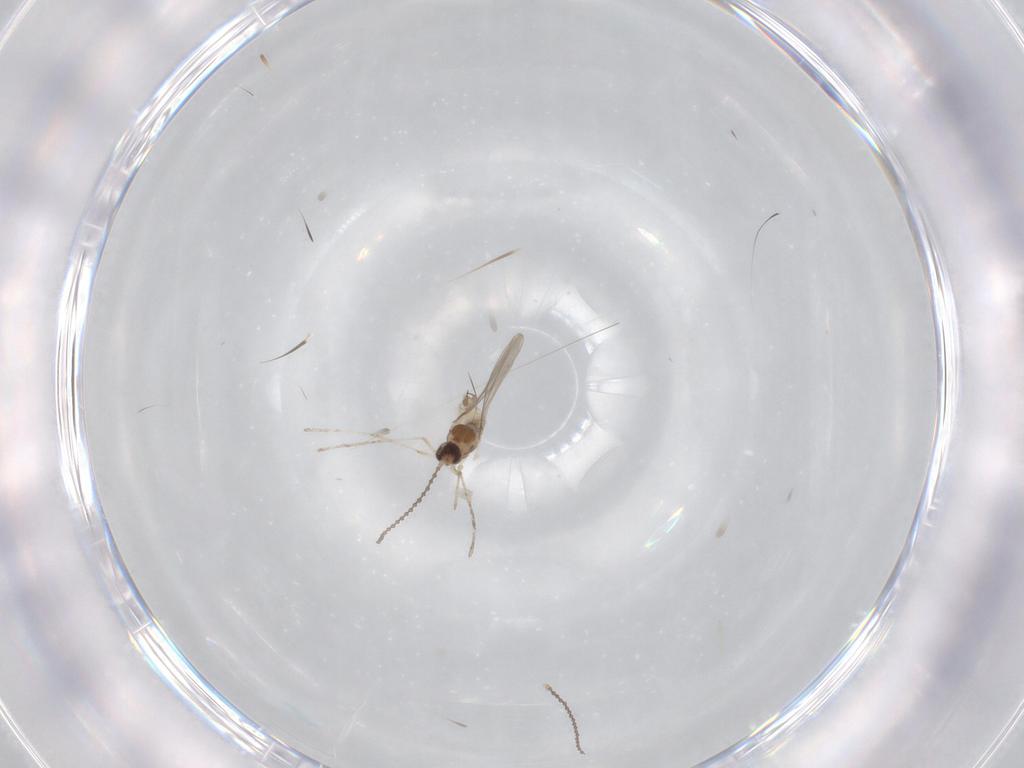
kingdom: Animalia
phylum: Arthropoda
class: Insecta
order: Diptera
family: Cecidomyiidae
